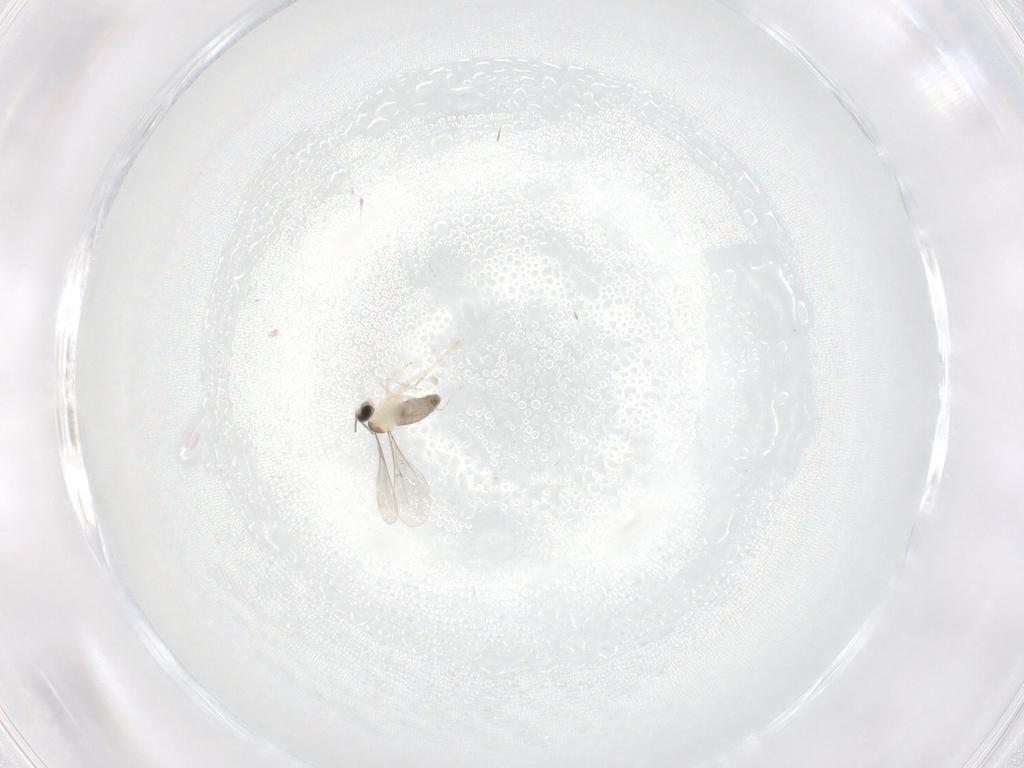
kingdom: Animalia
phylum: Arthropoda
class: Insecta
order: Diptera
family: Cecidomyiidae
